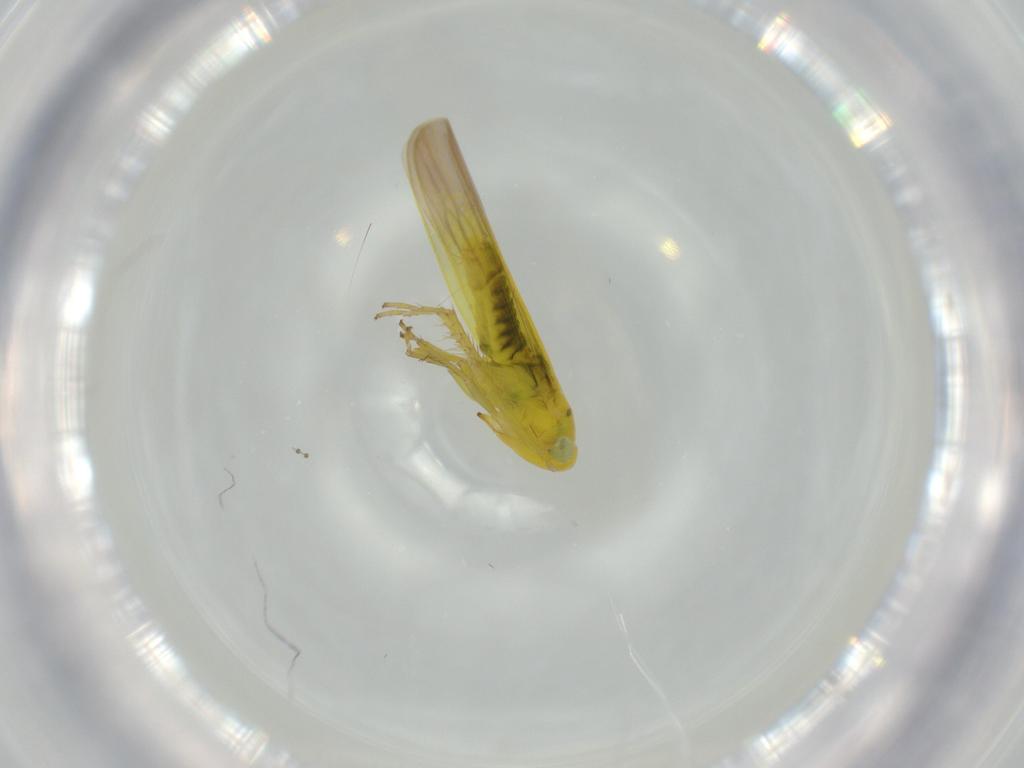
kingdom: Animalia
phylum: Arthropoda
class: Insecta
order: Hemiptera
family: Cicadellidae
